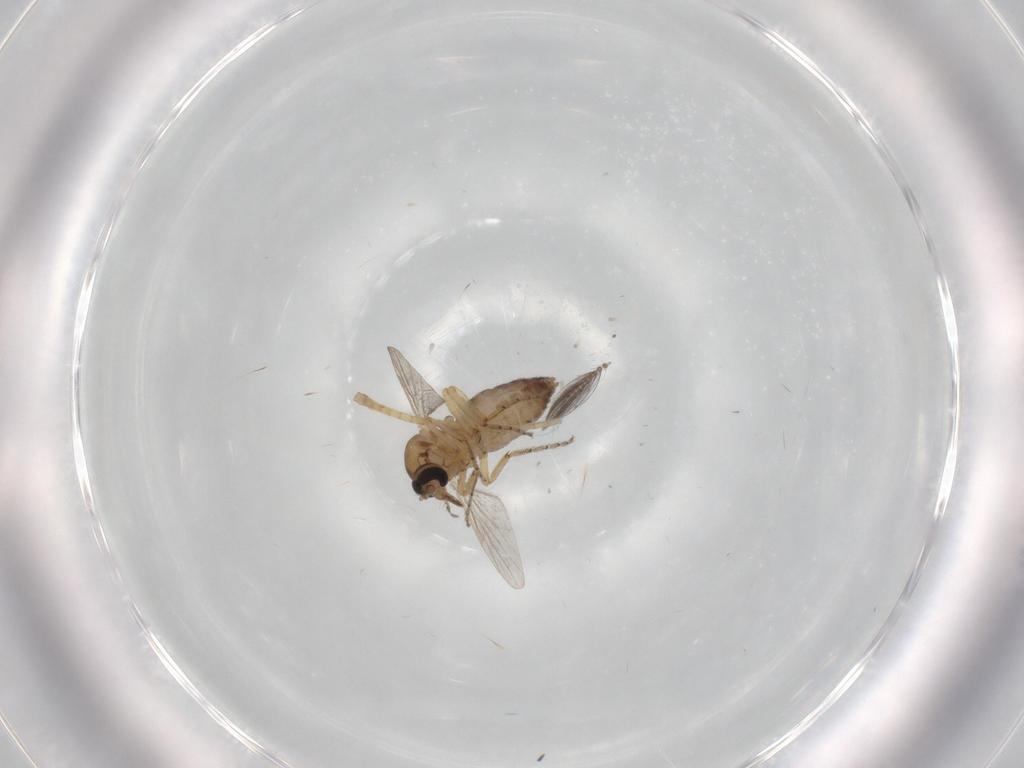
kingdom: Animalia
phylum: Arthropoda
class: Insecta
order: Diptera
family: Ceratopogonidae
